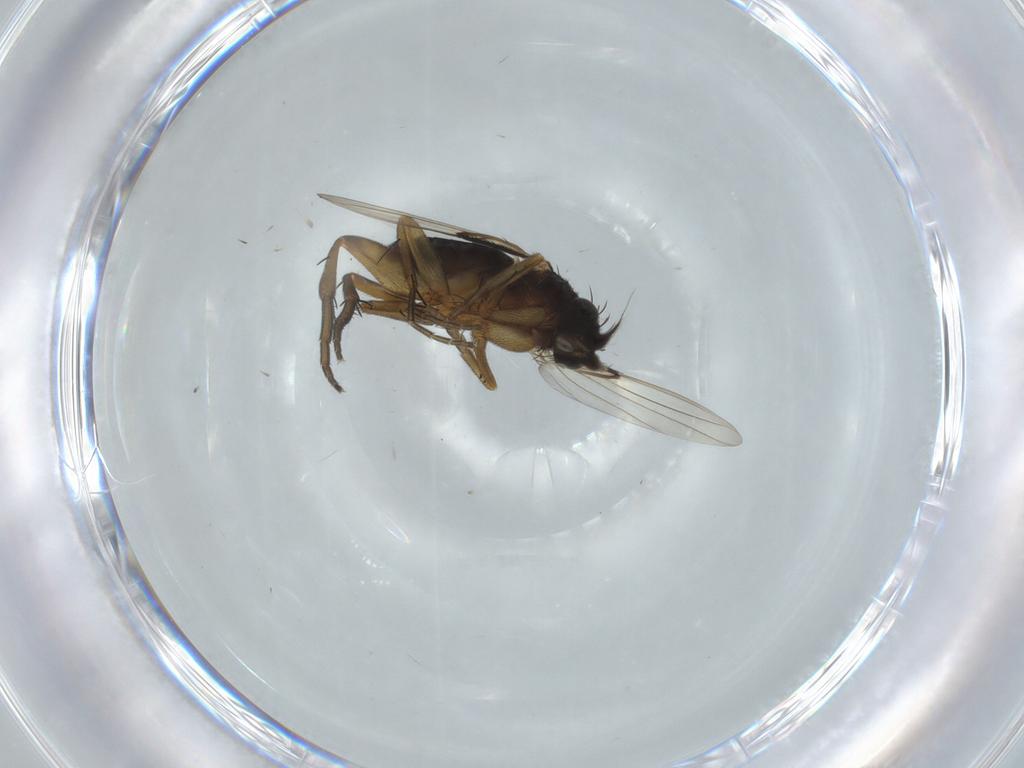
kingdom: Animalia
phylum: Arthropoda
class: Insecta
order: Diptera
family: Phoridae
